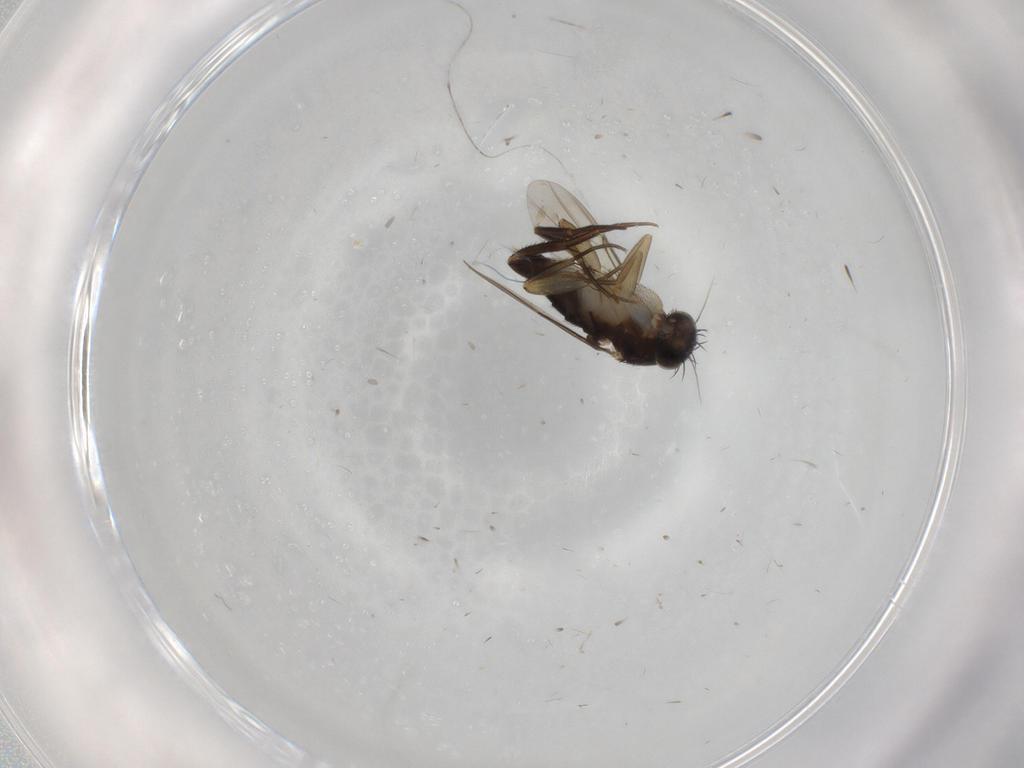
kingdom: Animalia
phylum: Arthropoda
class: Insecta
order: Diptera
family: Phoridae
